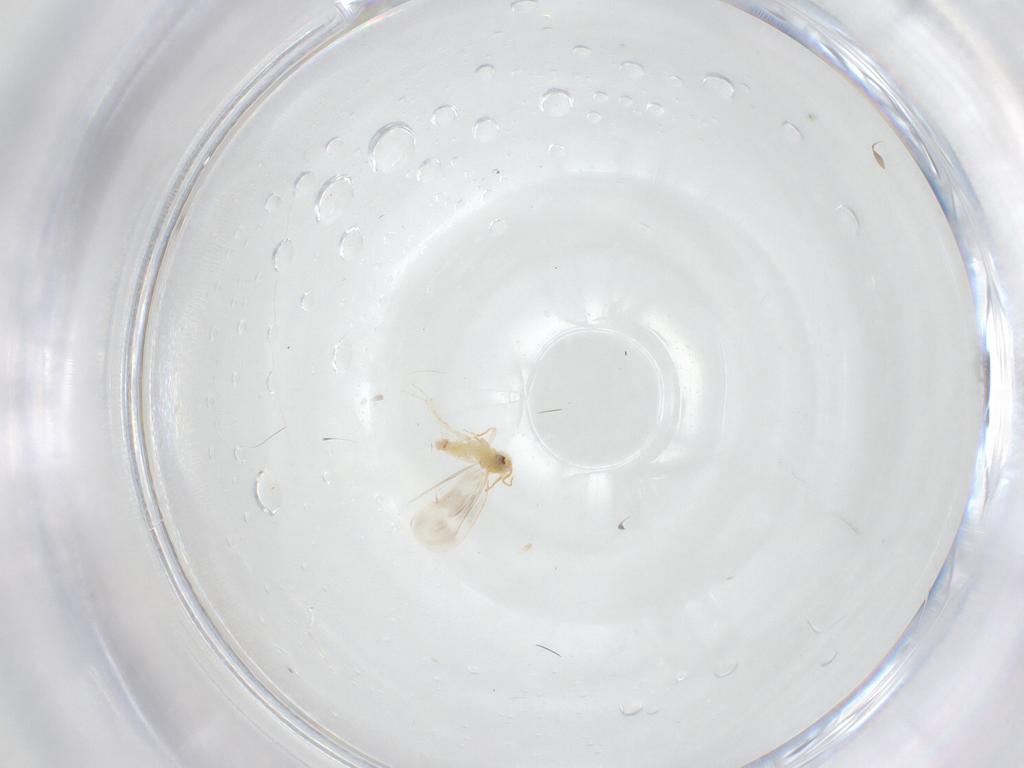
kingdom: Animalia
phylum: Arthropoda
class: Insecta
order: Hemiptera
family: Aleyrodidae
